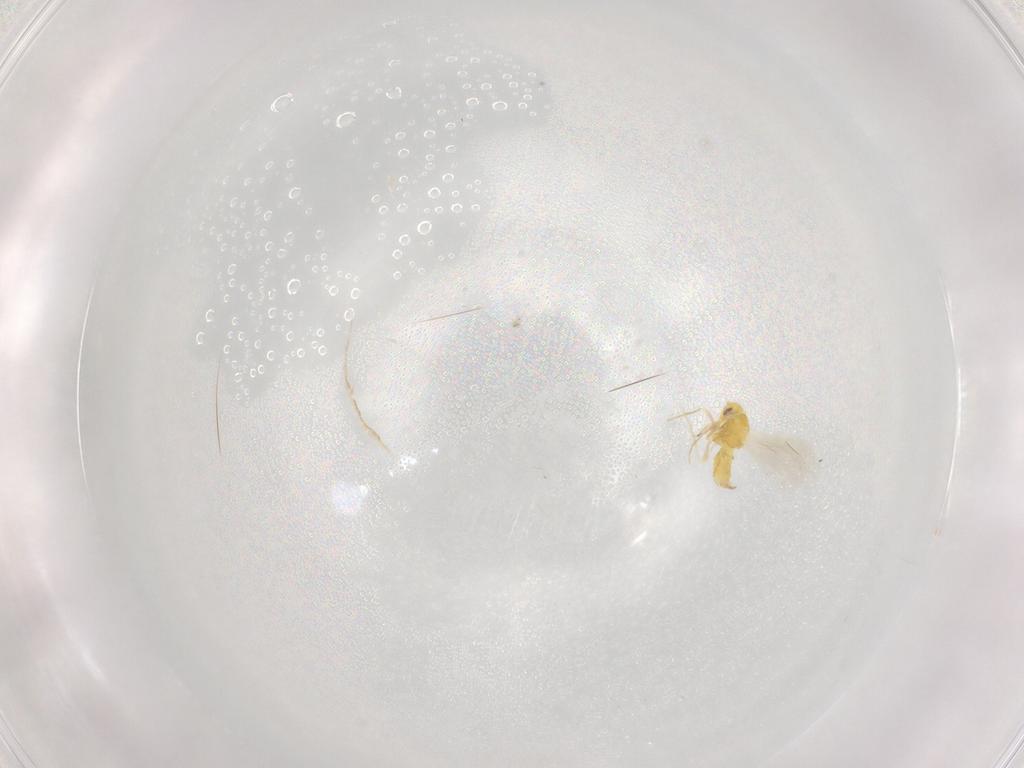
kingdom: Animalia
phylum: Arthropoda
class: Insecta
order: Hemiptera
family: Aleyrodidae
